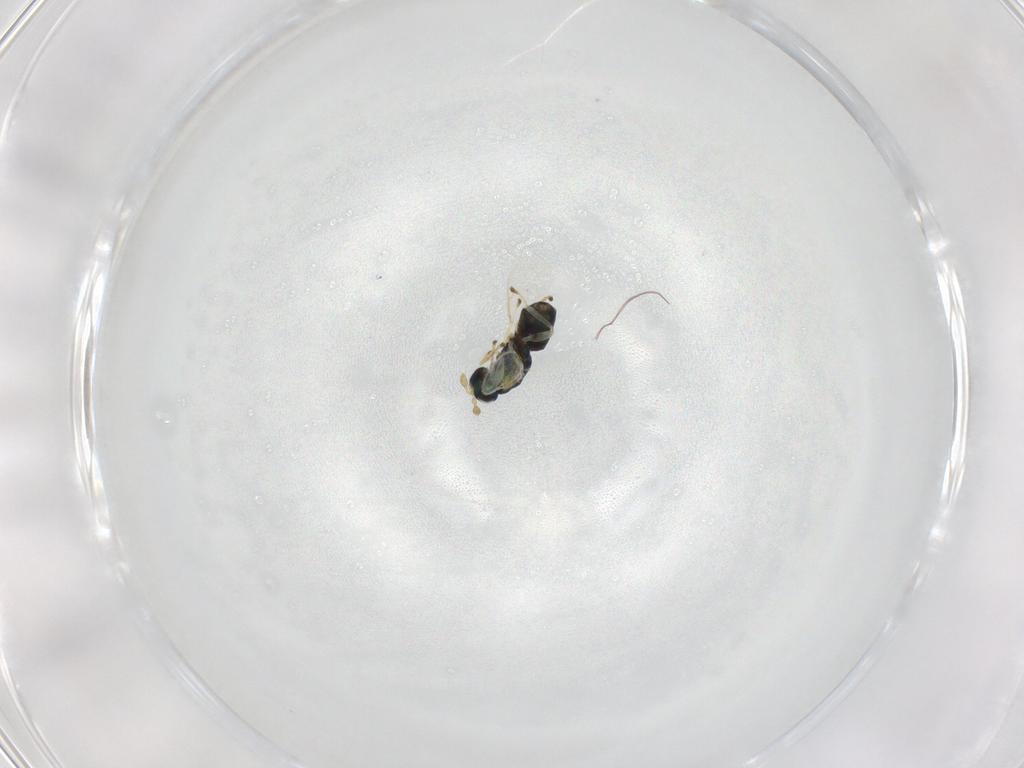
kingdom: Animalia
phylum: Arthropoda
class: Insecta
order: Hymenoptera
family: Eulophidae
